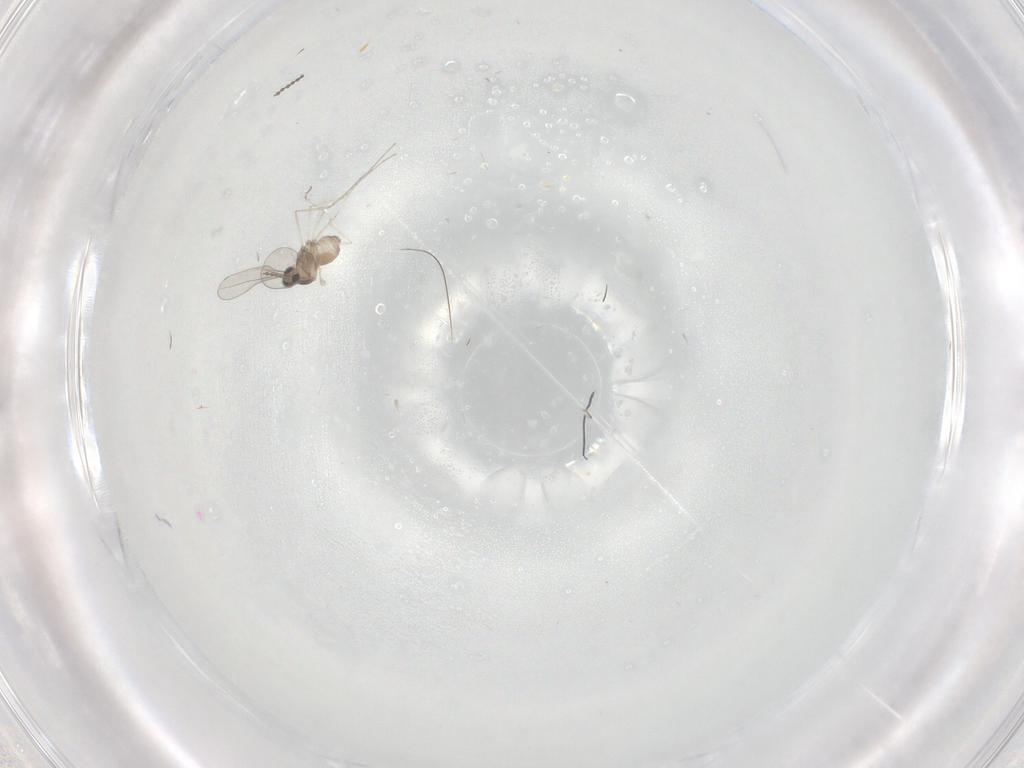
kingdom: Animalia
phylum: Arthropoda
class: Insecta
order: Diptera
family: Cecidomyiidae
